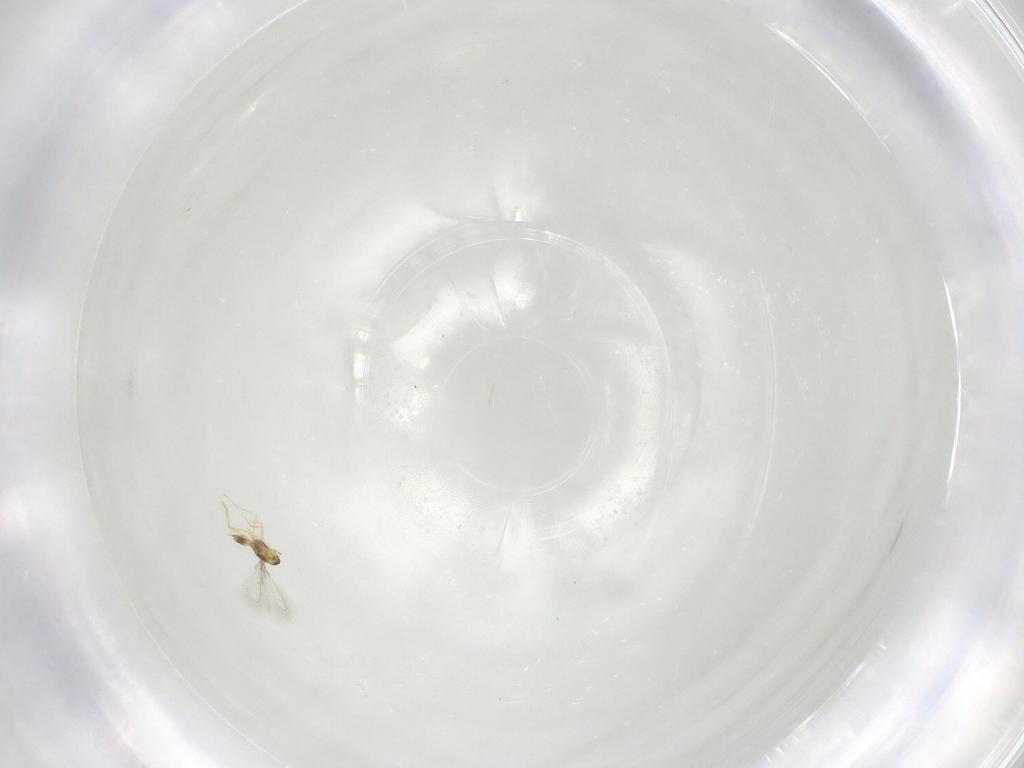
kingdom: Animalia
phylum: Arthropoda
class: Insecta
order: Hymenoptera
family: Mymaridae
